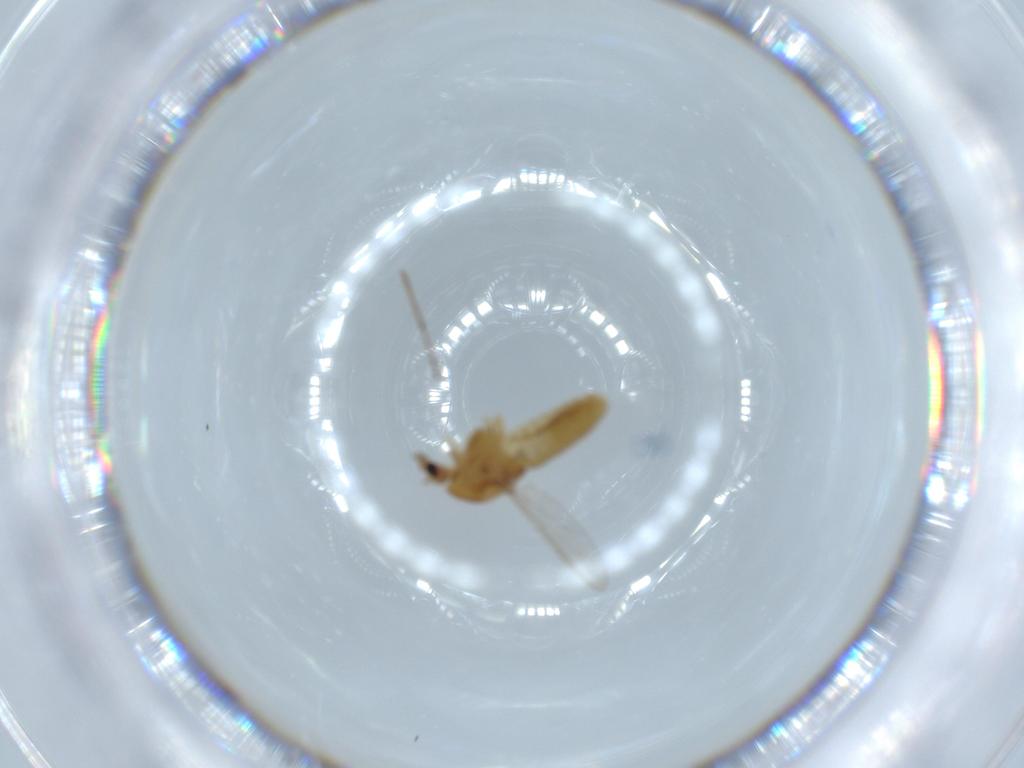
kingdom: Animalia
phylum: Arthropoda
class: Insecta
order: Diptera
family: Chironomidae
